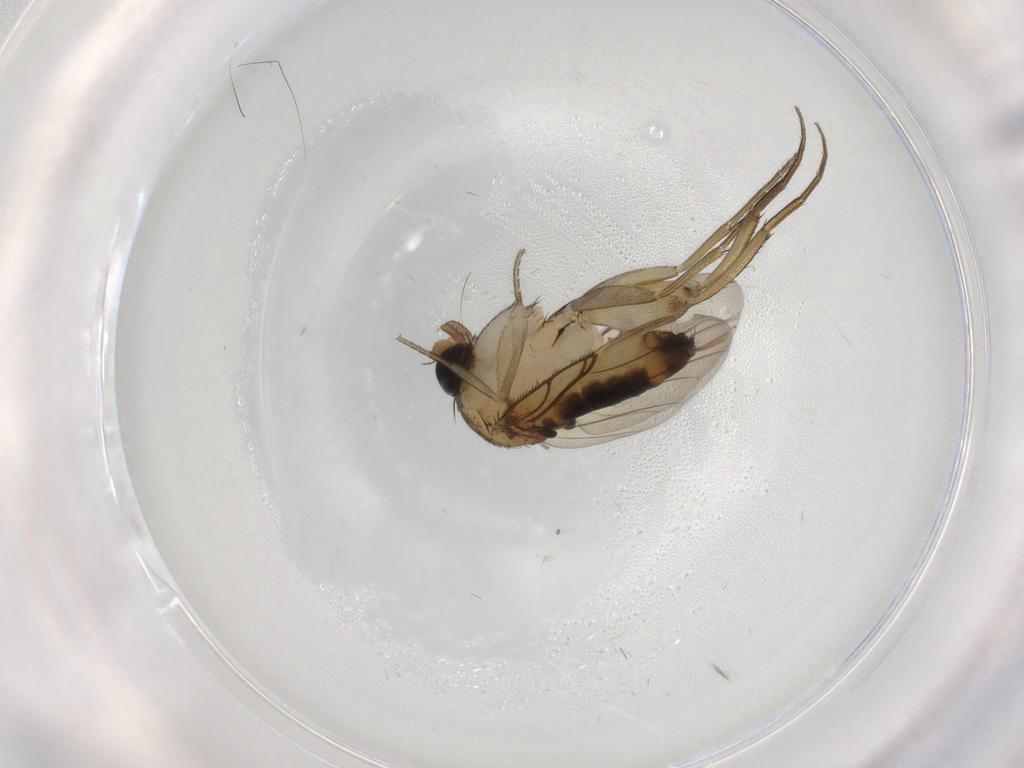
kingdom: Animalia
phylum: Arthropoda
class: Insecta
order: Diptera
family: Phoridae
